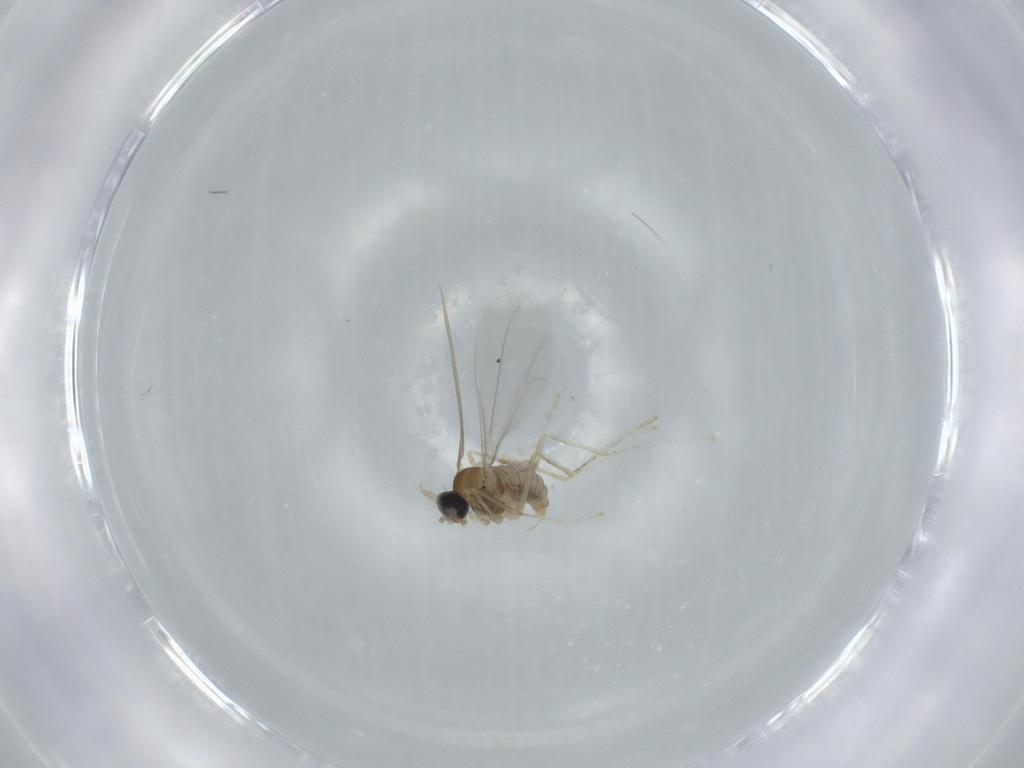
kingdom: Animalia
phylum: Arthropoda
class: Insecta
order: Diptera
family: Cecidomyiidae
